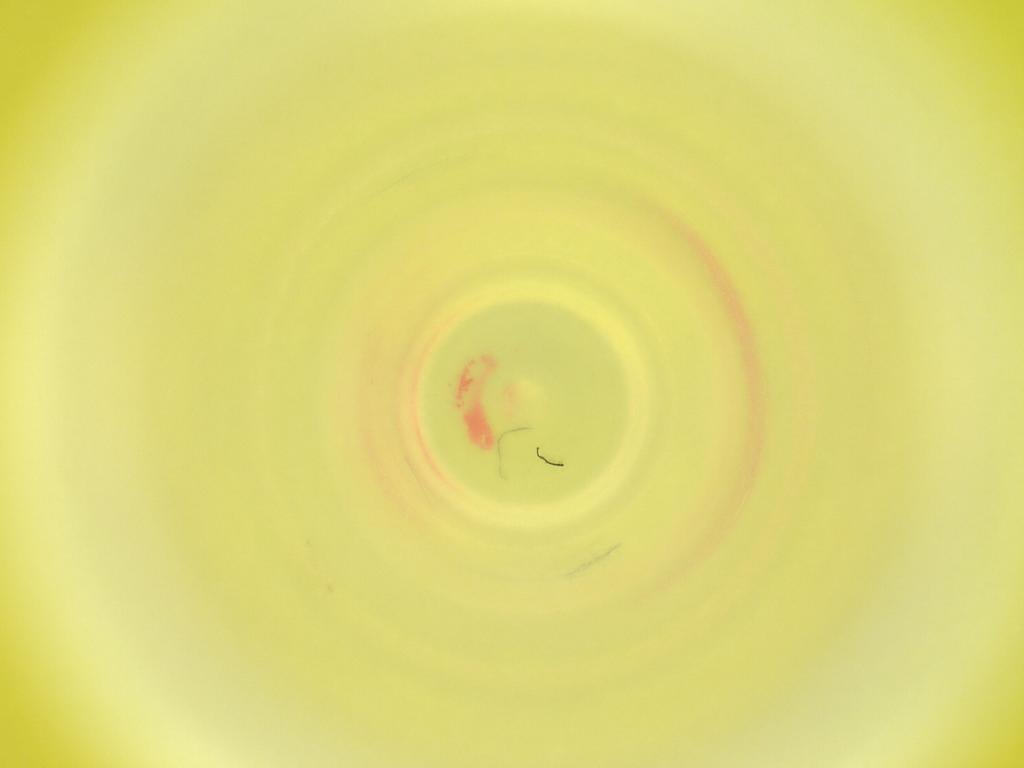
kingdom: Animalia
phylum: Arthropoda
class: Insecta
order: Diptera
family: Cecidomyiidae
